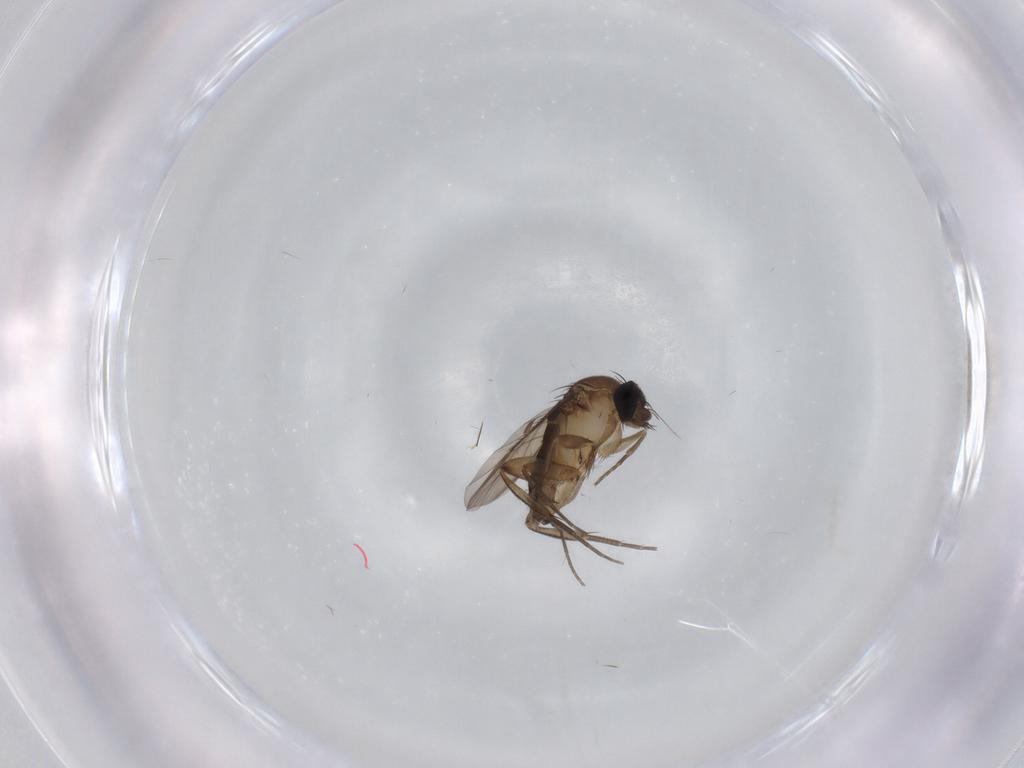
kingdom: Animalia
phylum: Arthropoda
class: Insecta
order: Diptera
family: Phoridae
